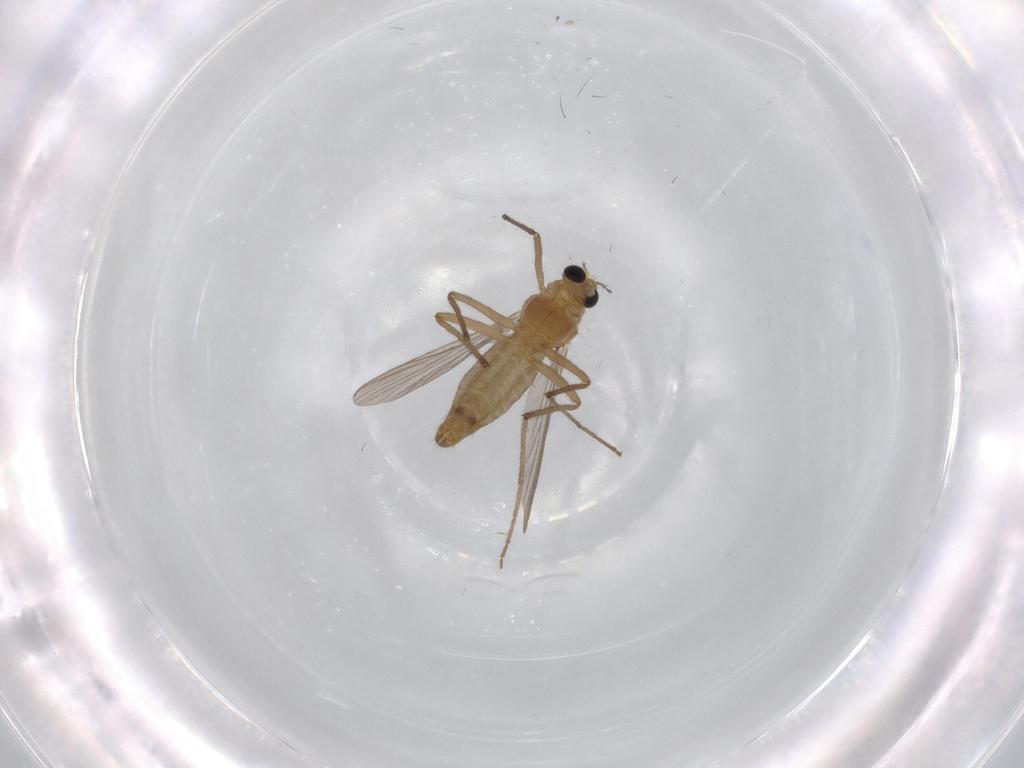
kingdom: Animalia
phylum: Arthropoda
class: Insecta
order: Diptera
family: Chironomidae
